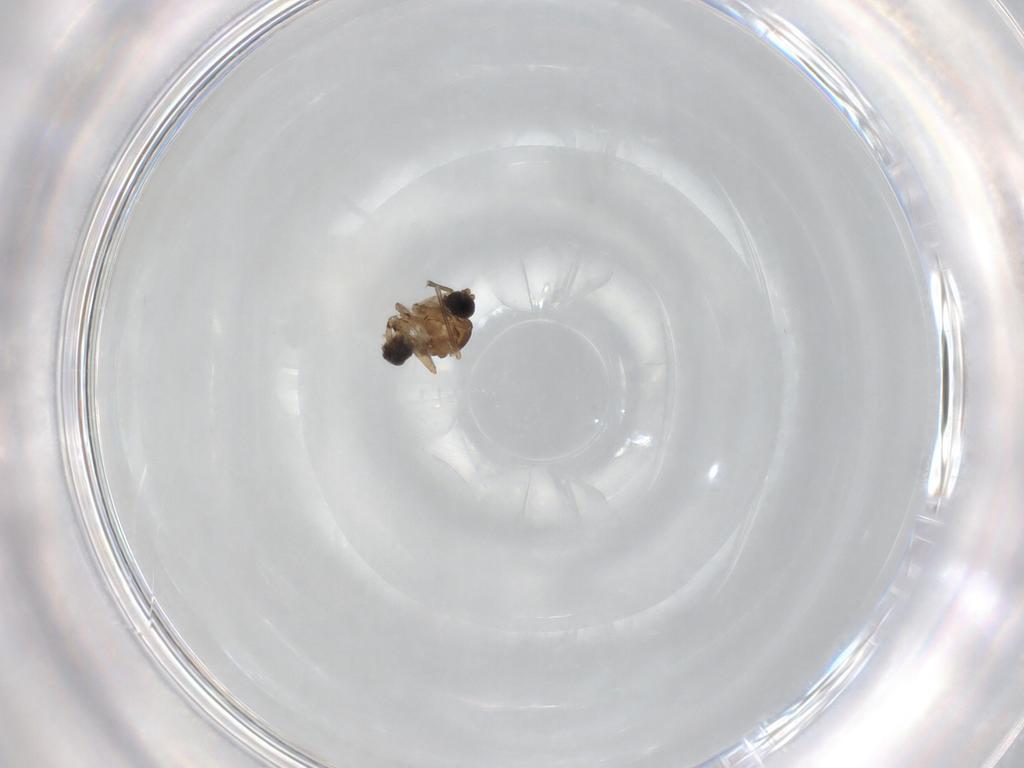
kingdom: Animalia
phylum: Arthropoda
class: Insecta
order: Diptera
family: Sciaridae
